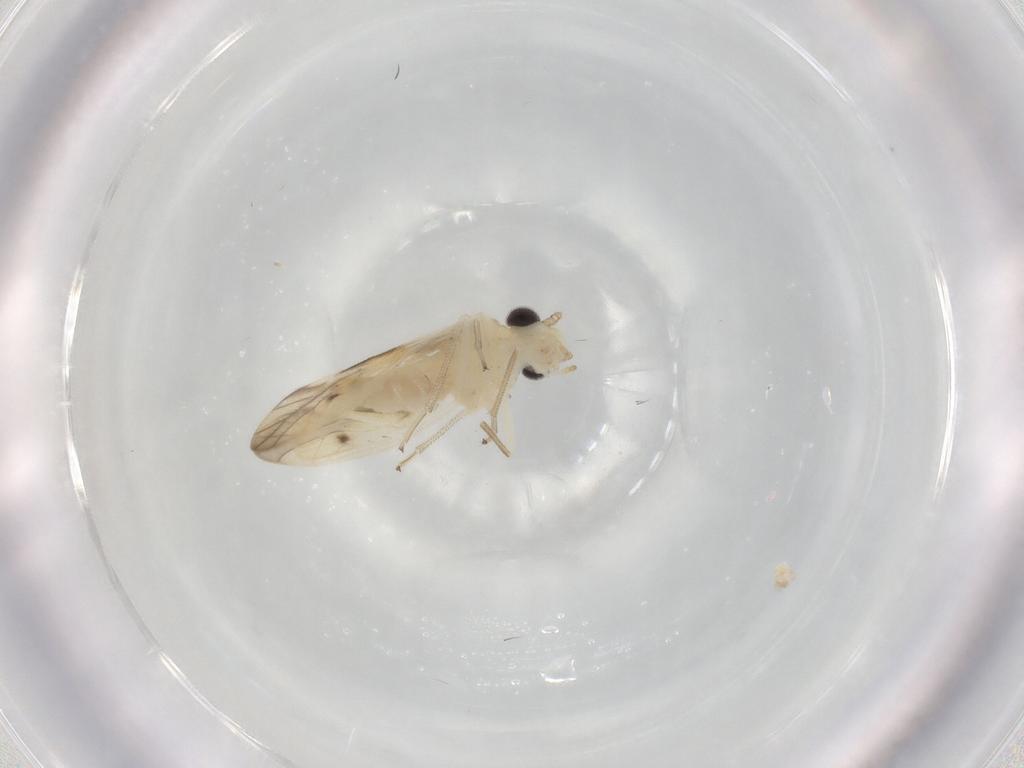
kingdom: Animalia
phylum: Arthropoda
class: Insecta
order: Psocodea
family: Caeciliusidae
